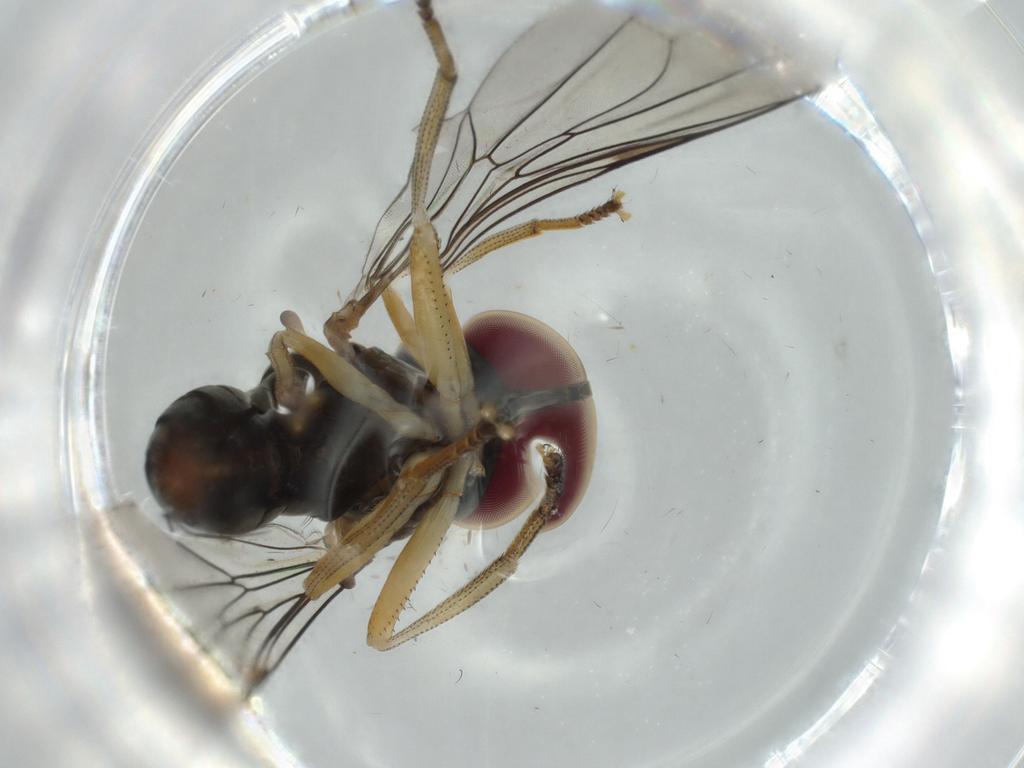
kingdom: Animalia
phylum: Arthropoda
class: Insecta
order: Diptera
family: Pipunculidae
